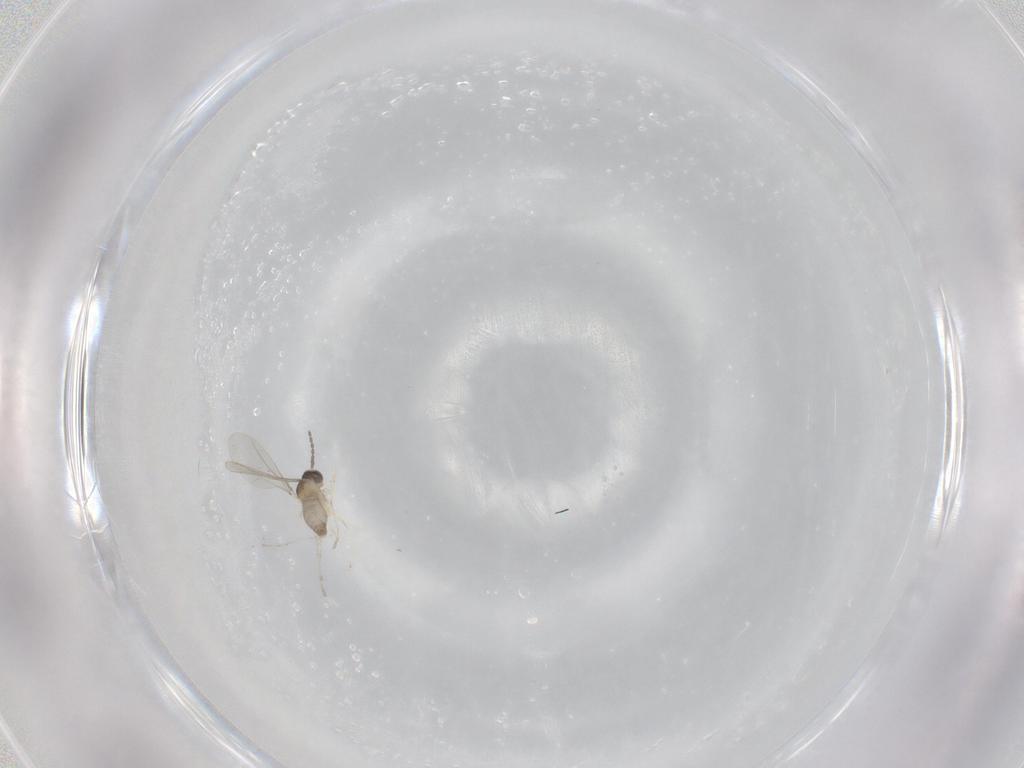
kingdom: Animalia
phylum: Arthropoda
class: Insecta
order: Diptera
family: Cecidomyiidae
